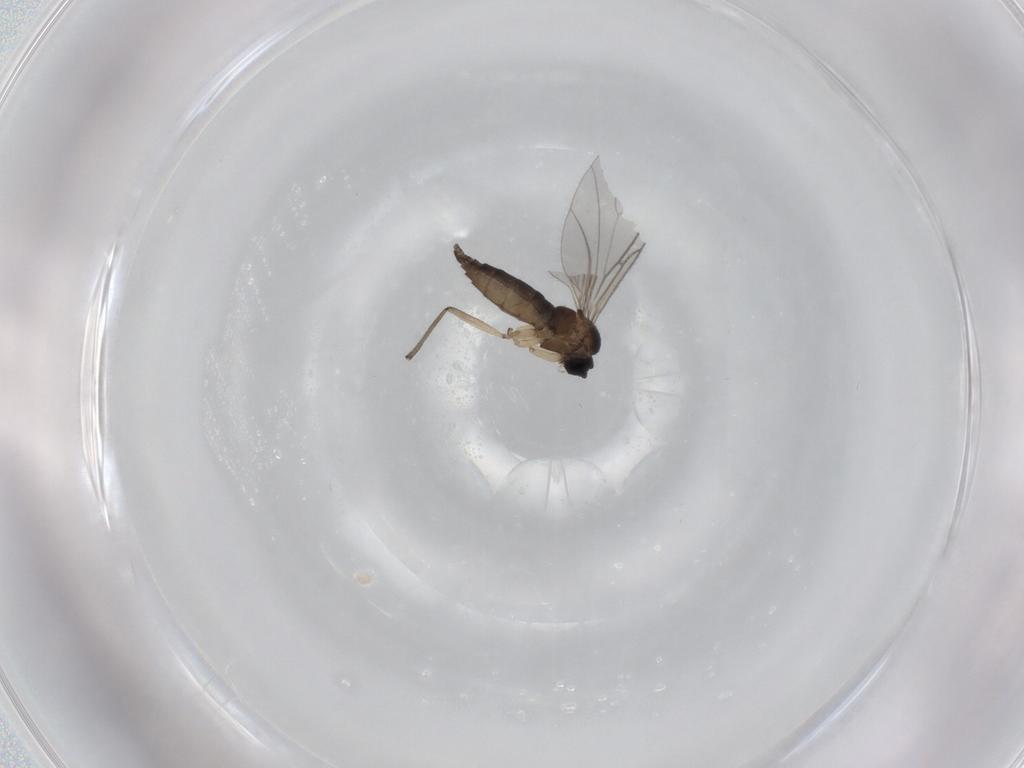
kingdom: Animalia
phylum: Arthropoda
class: Insecta
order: Diptera
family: Sciaridae
